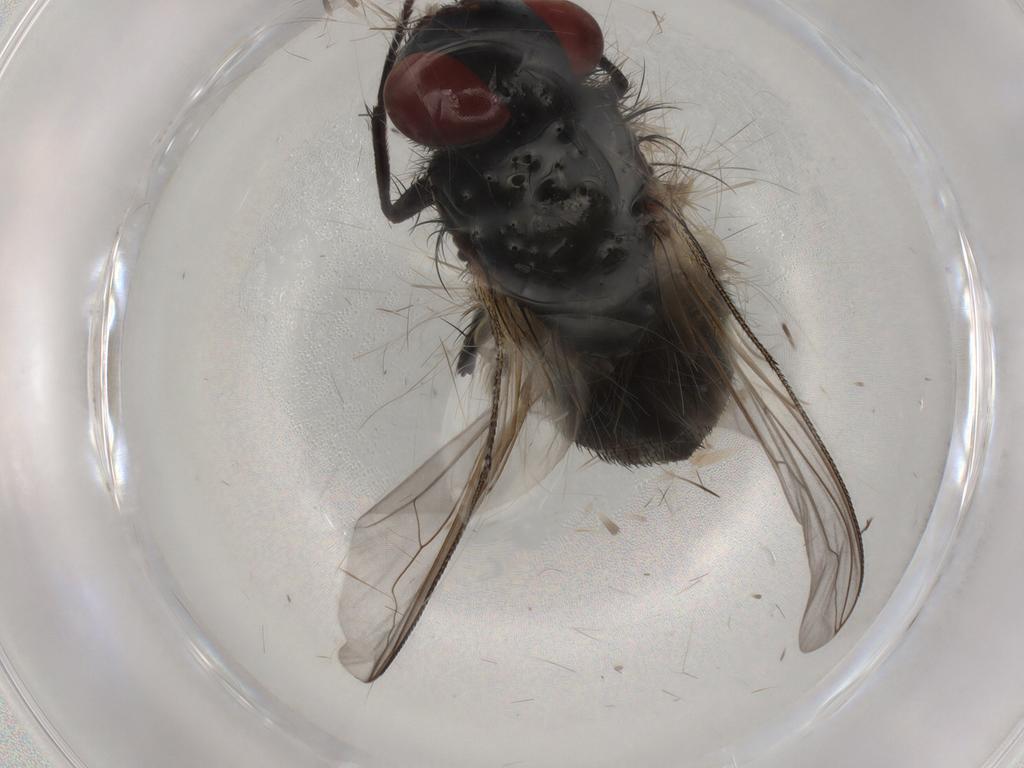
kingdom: Animalia
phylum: Arthropoda
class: Insecta
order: Diptera
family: Sarcophagidae
